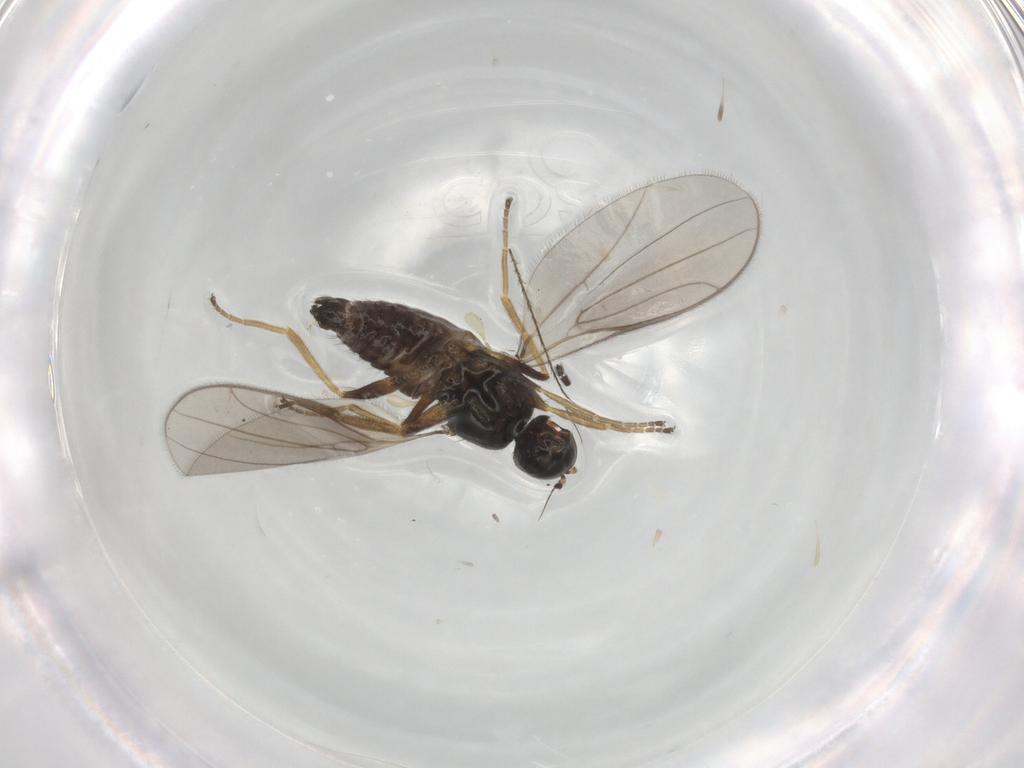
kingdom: Animalia
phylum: Arthropoda
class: Insecta
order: Diptera
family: Hybotidae
